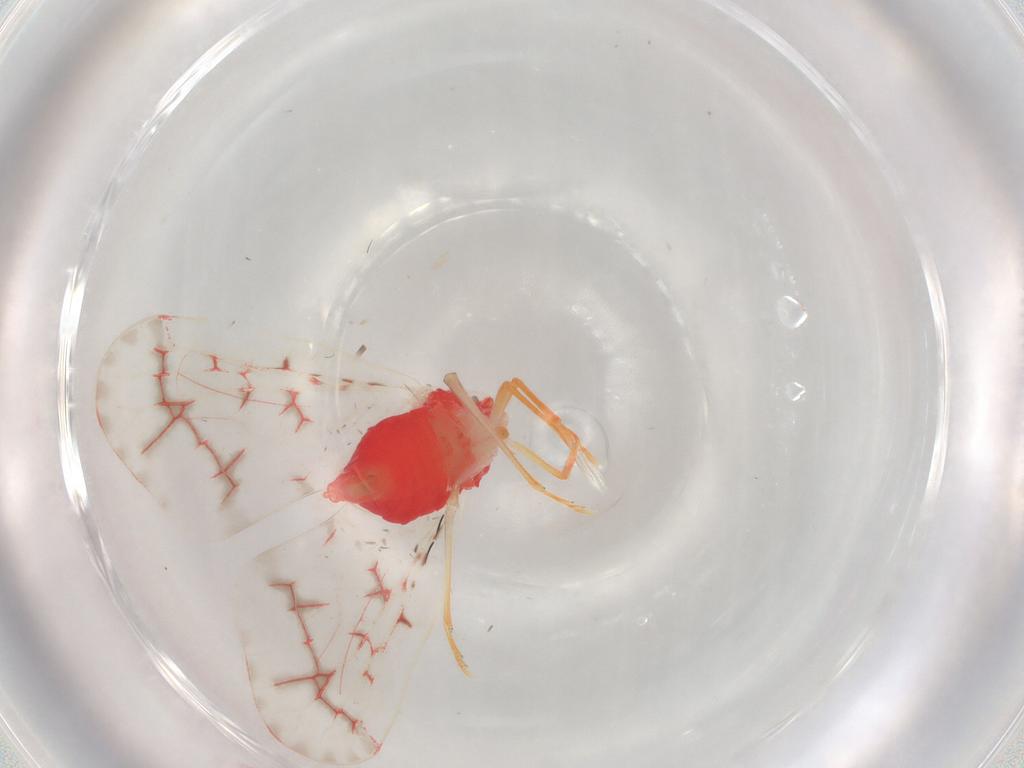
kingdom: Animalia
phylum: Arthropoda
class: Insecta
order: Hemiptera
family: Derbidae
